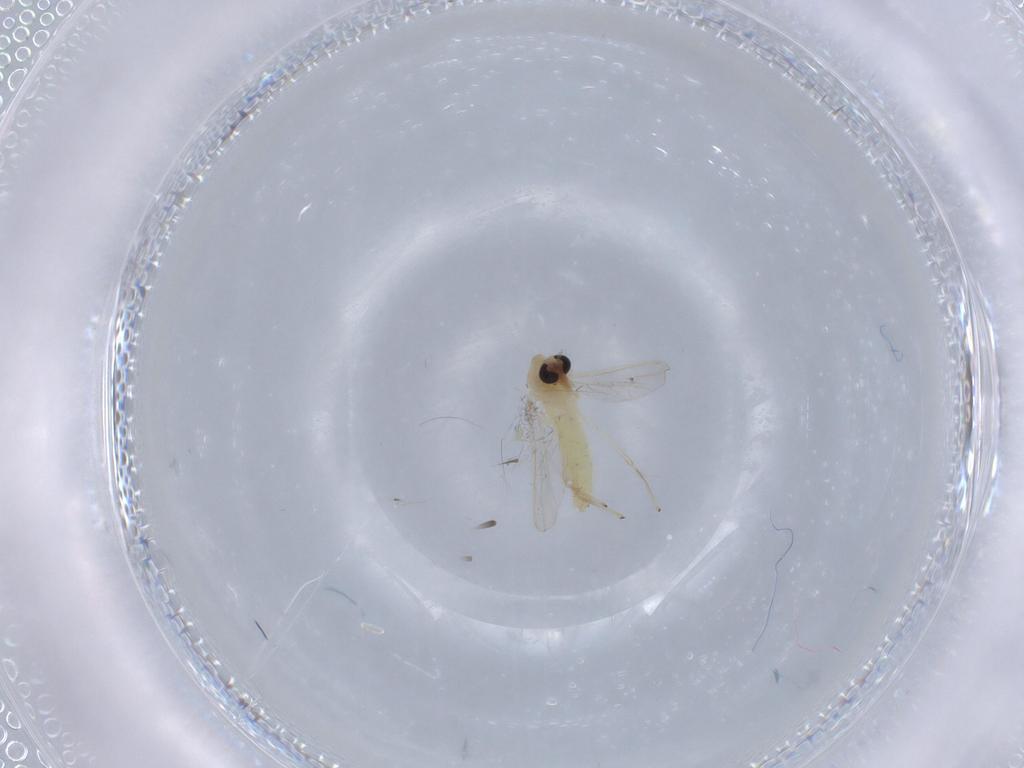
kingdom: Animalia
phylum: Arthropoda
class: Insecta
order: Diptera
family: Chironomidae
